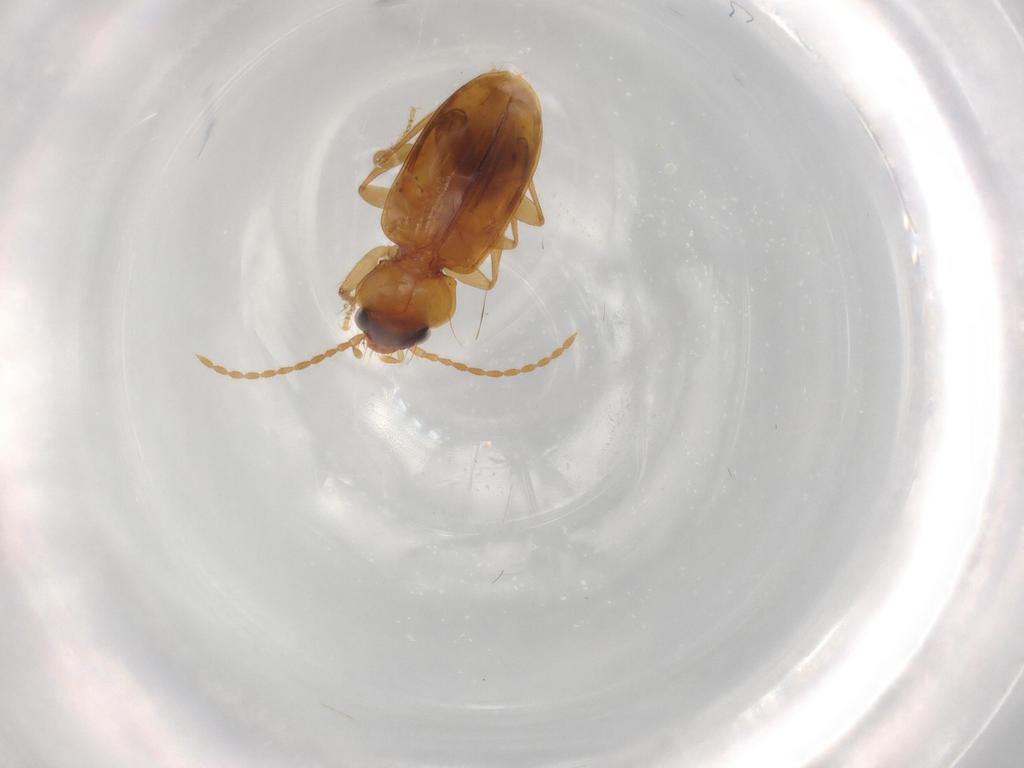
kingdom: Animalia
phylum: Arthropoda
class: Insecta
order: Coleoptera
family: Carabidae
